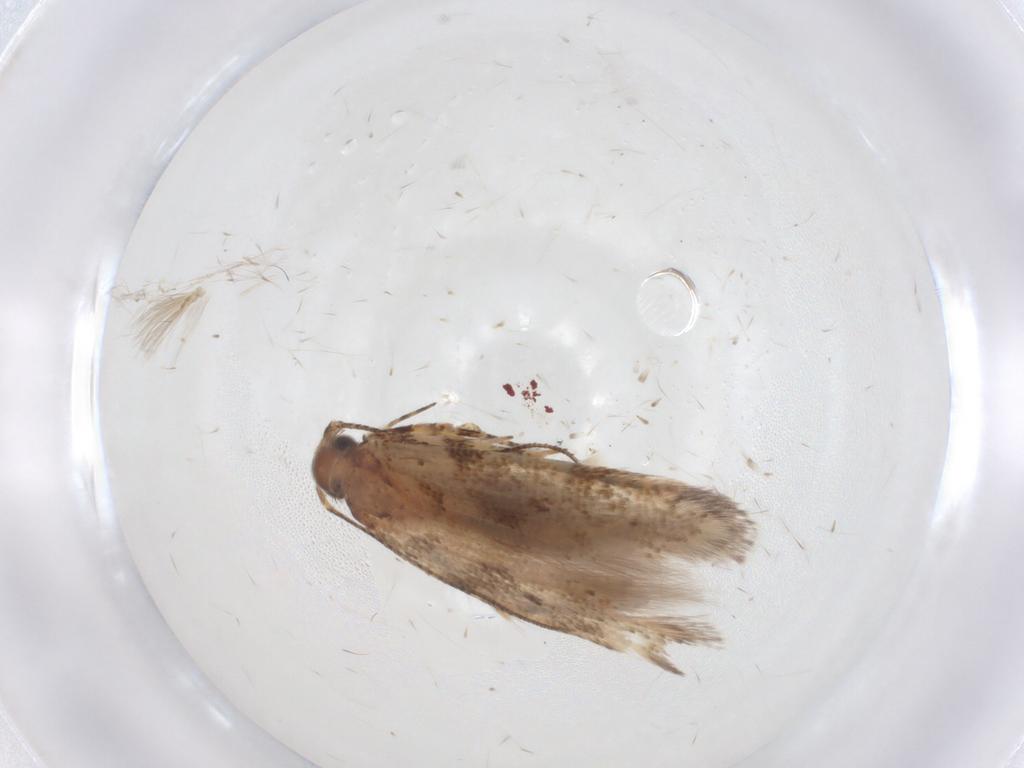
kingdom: Animalia
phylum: Arthropoda
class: Insecta
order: Lepidoptera
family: Gelechiidae
